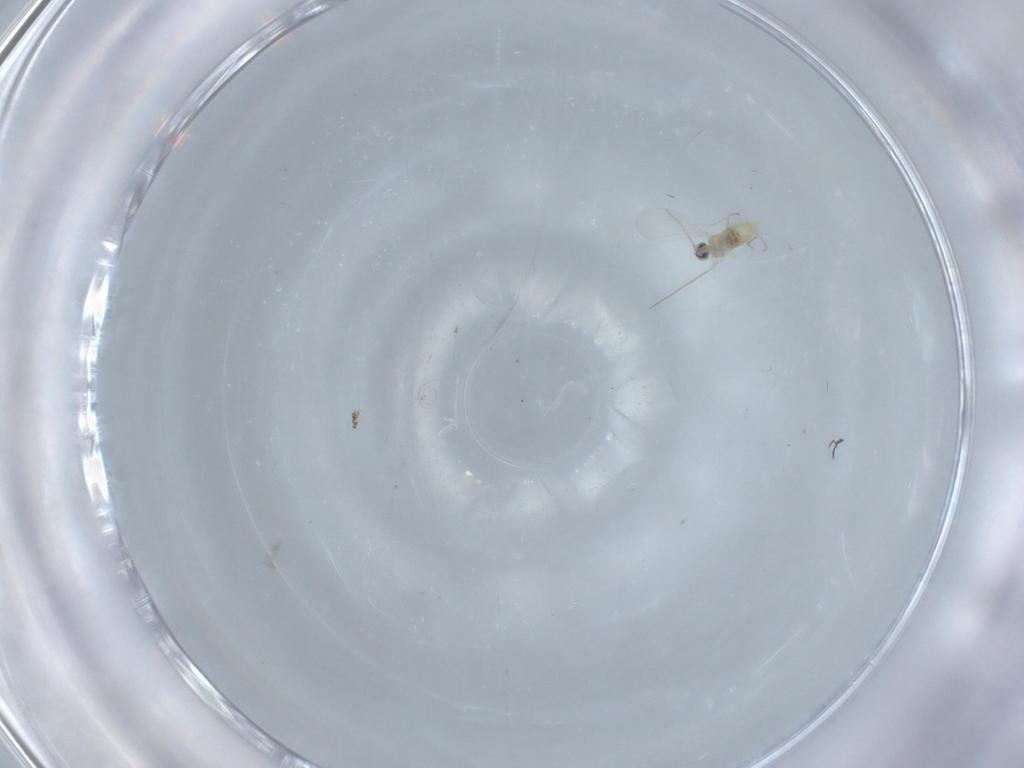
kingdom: Animalia
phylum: Arthropoda
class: Insecta
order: Diptera
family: Cecidomyiidae
